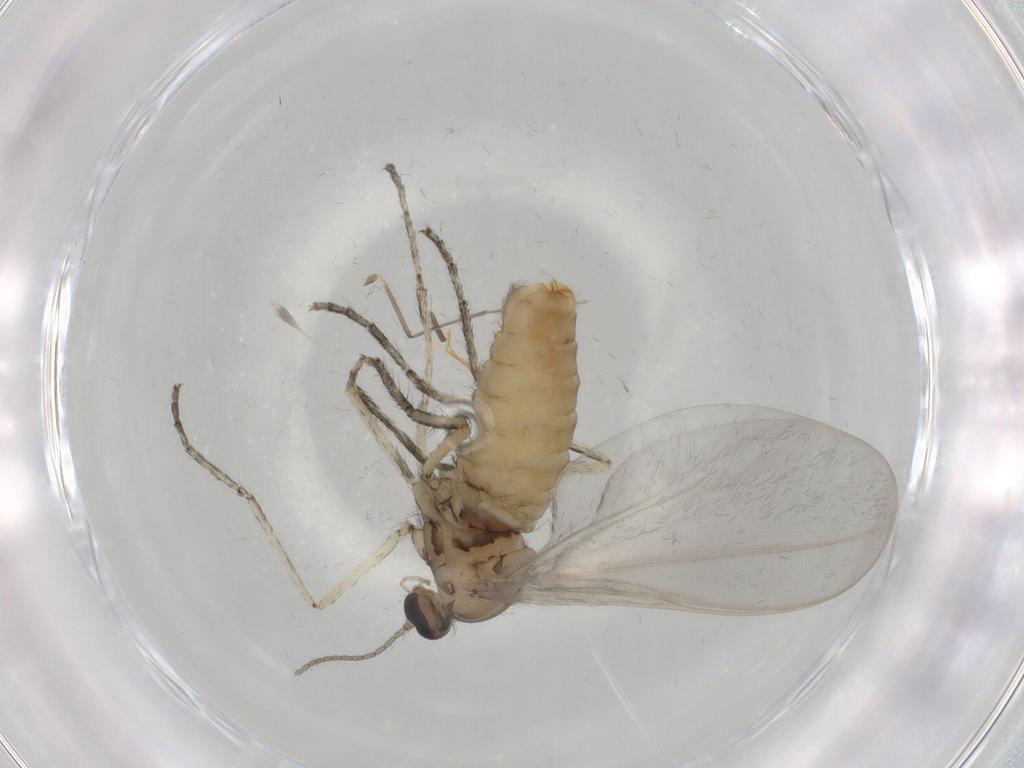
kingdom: Animalia
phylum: Arthropoda
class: Insecta
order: Diptera
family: Cecidomyiidae
